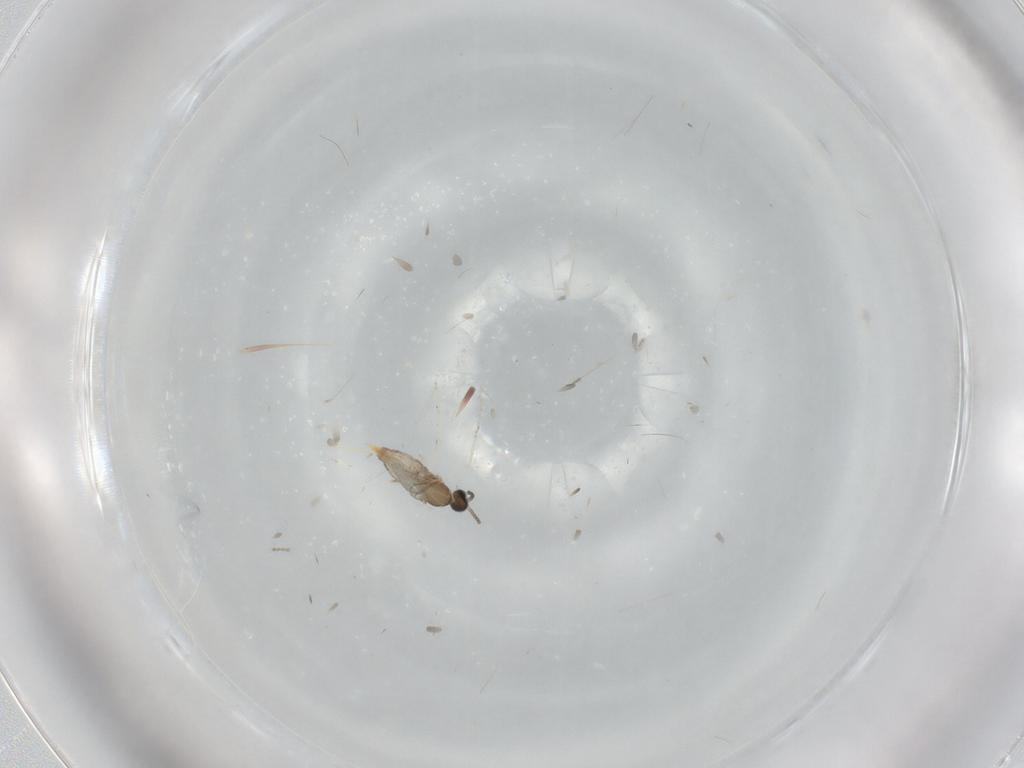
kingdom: Animalia
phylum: Arthropoda
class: Insecta
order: Diptera
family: Cecidomyiidae
